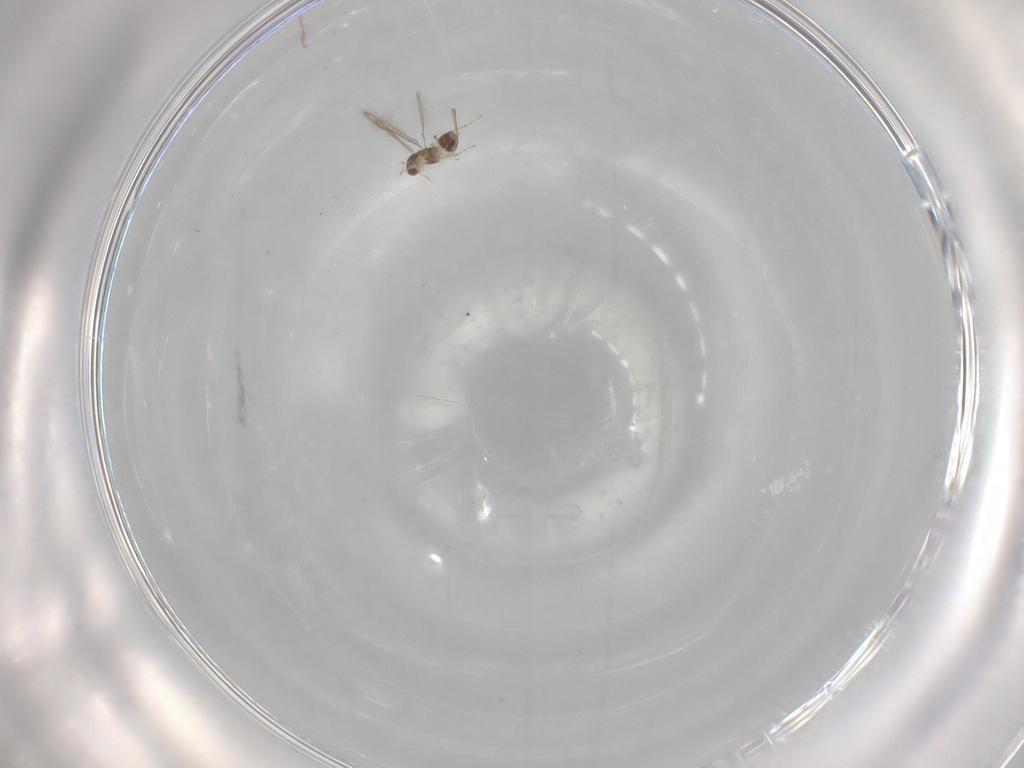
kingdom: Animalia
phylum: Arthropoda
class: Insecta
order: Hymenoptera
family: Mymaridae
